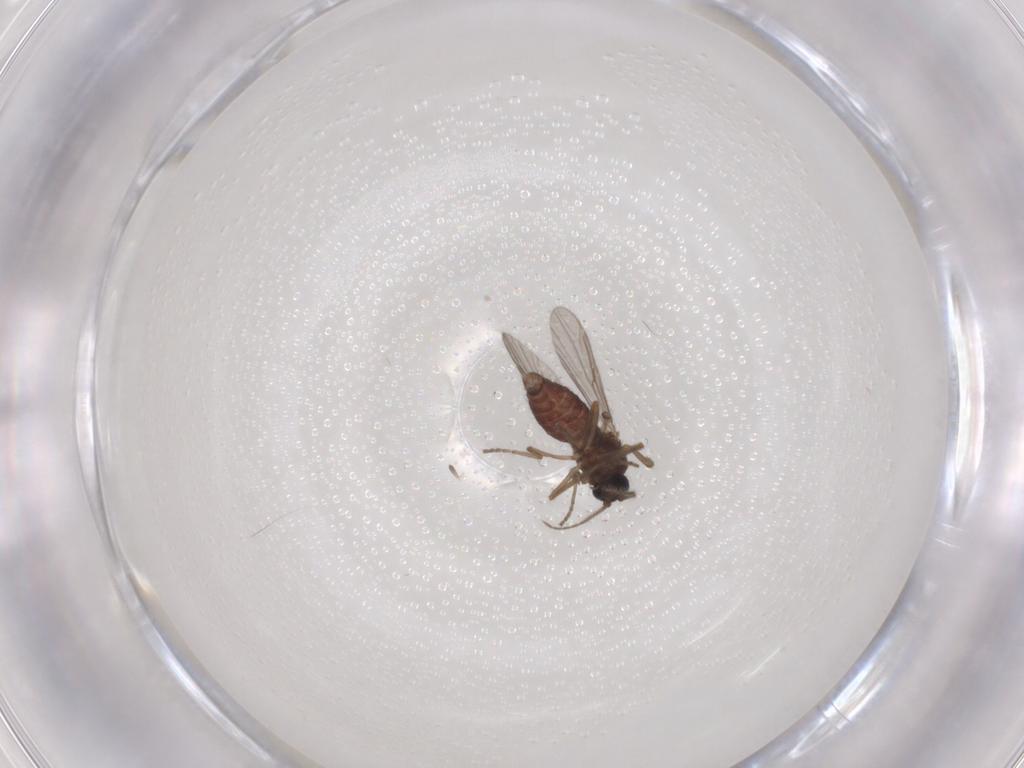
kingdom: Animalia
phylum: Arthropoda
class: Insecta
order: Diptera
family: Ceratopogonidae
